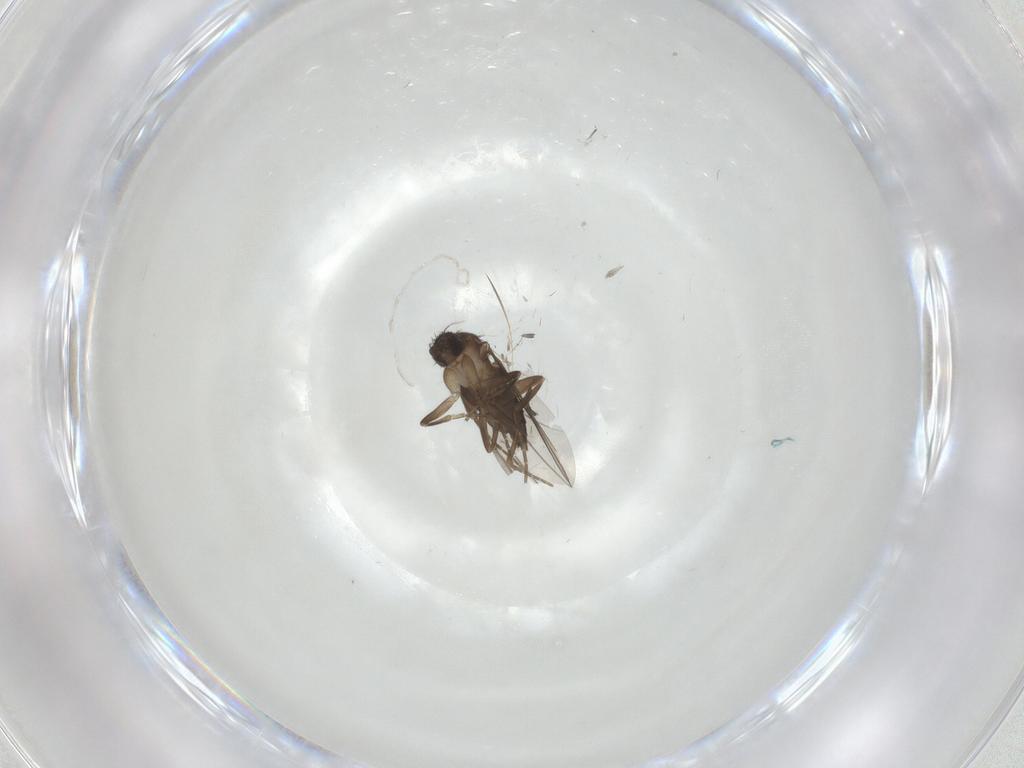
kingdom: Animalia
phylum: Arthropoda
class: Insecta
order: Diptera
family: Sciaridae
